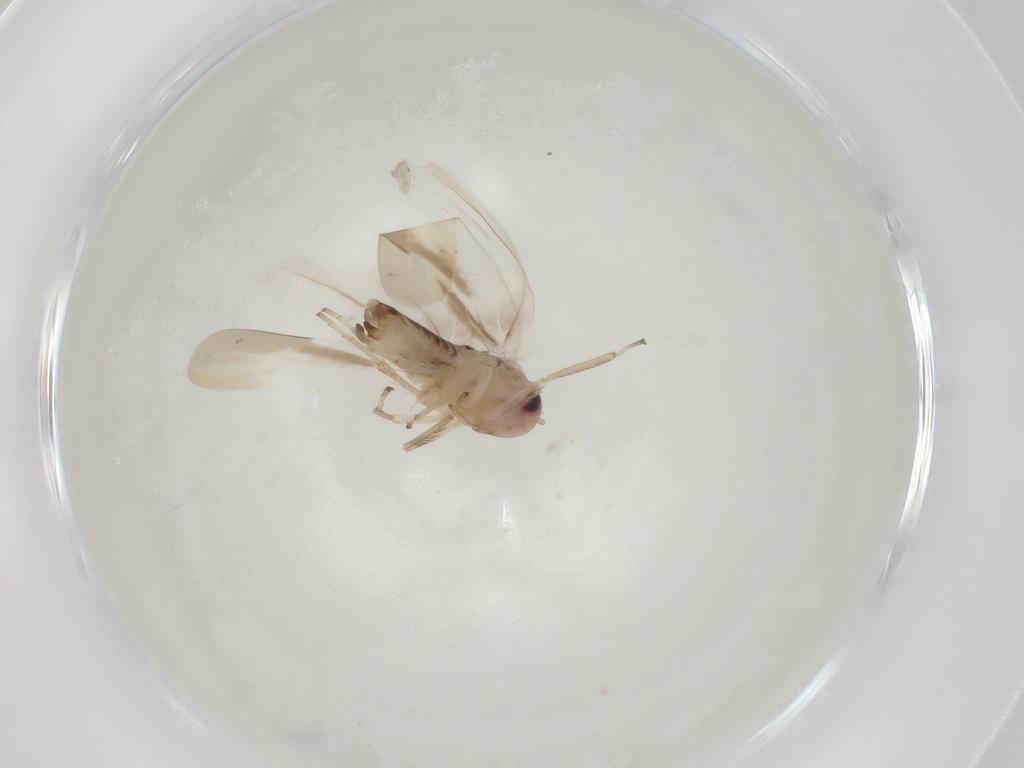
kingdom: Animalia
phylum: Arthropoda
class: Insecta
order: Hemiptera
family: Cicadellidae
